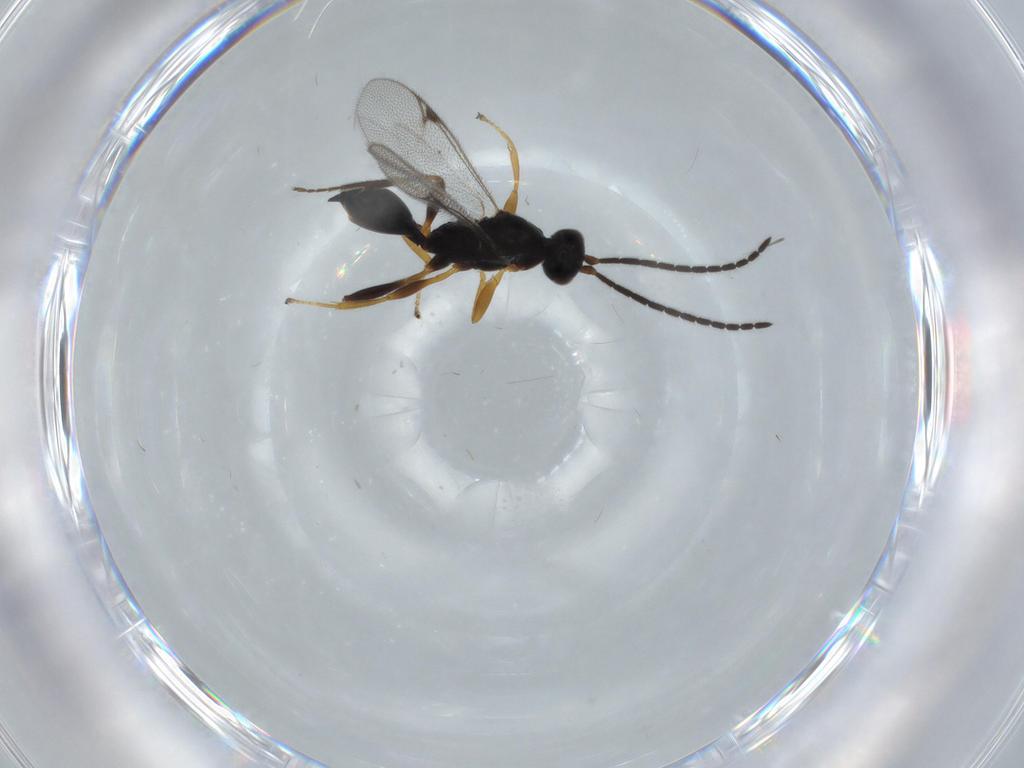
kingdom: Animalia
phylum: Arthropoda
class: Insecta
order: Hymenoptera
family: Proctotrupidae
